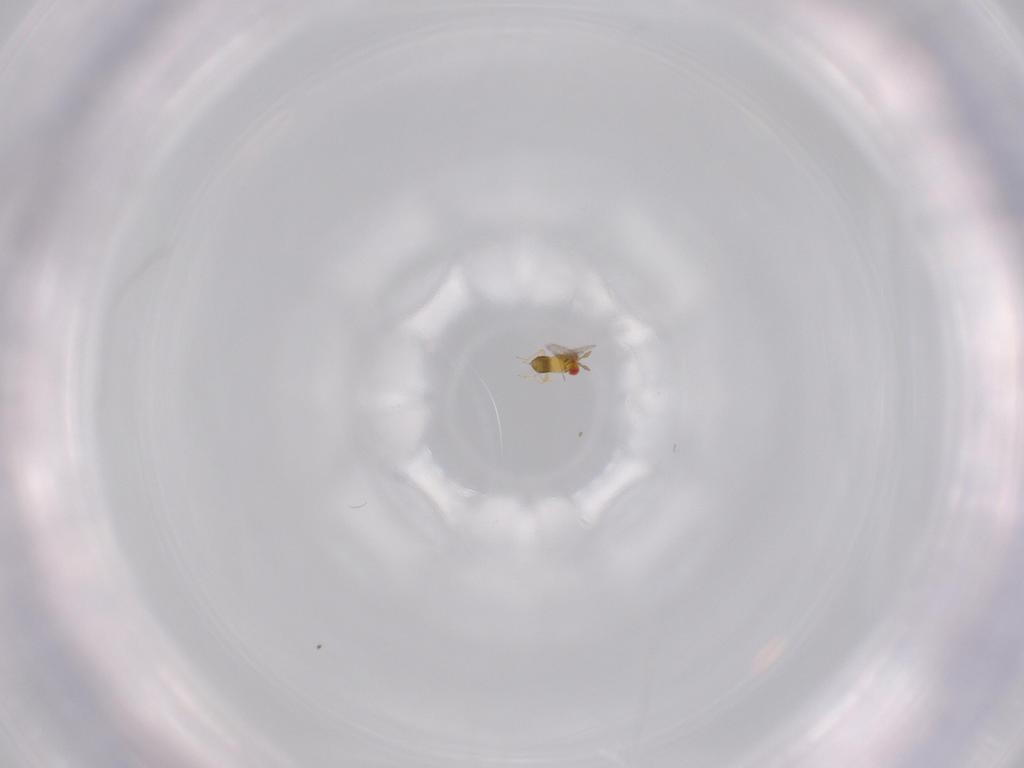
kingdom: Animalia
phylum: Arthropoda
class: Insecta
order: Hymenoptera
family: Trichogrammatidae
